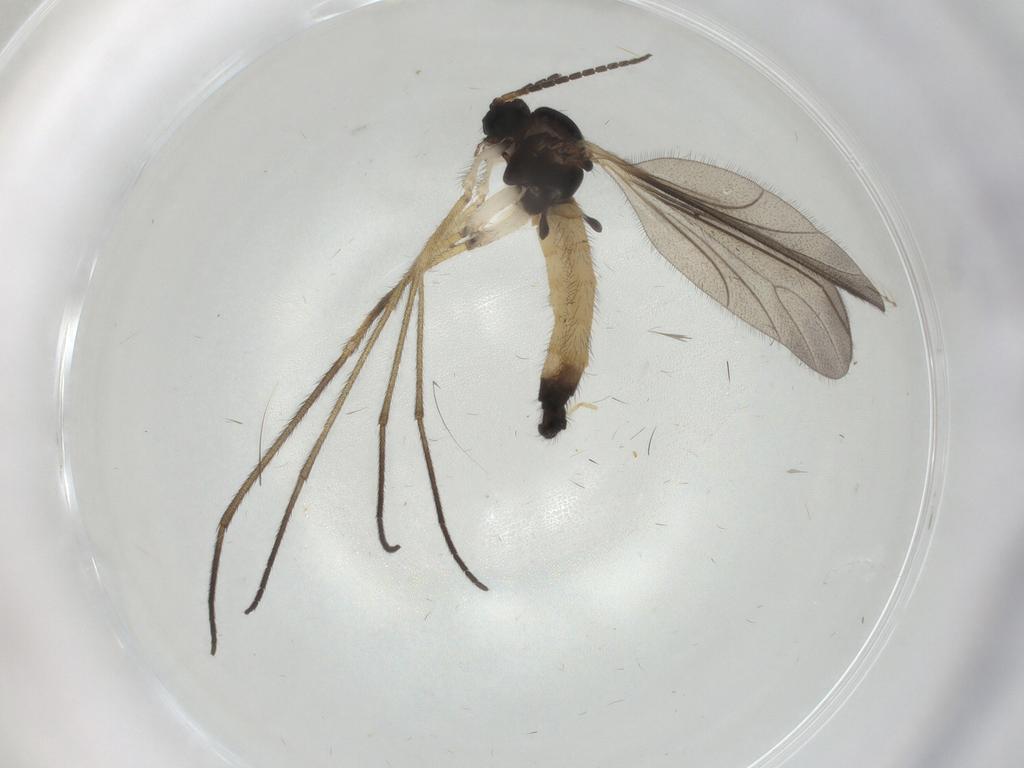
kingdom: Animalia
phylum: Arthropoda
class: Insecta
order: Diptera
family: Sciaridae
